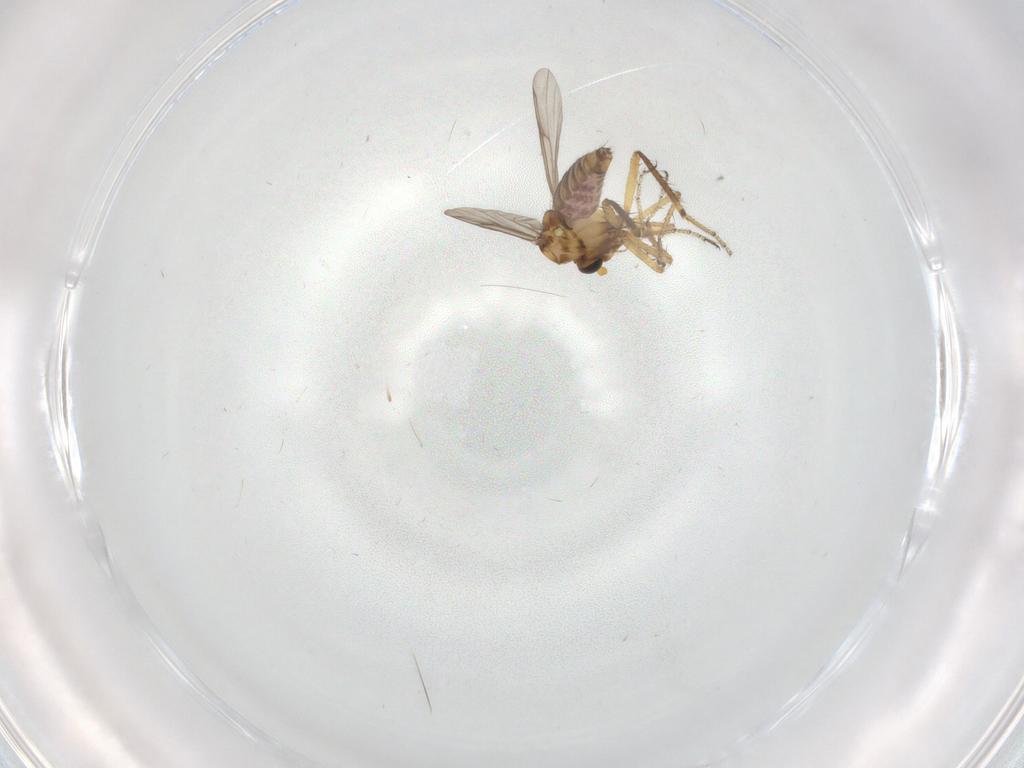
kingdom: Animalia
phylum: Arthropoda
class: Insecta
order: Diptera
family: Ceratopogonidae
